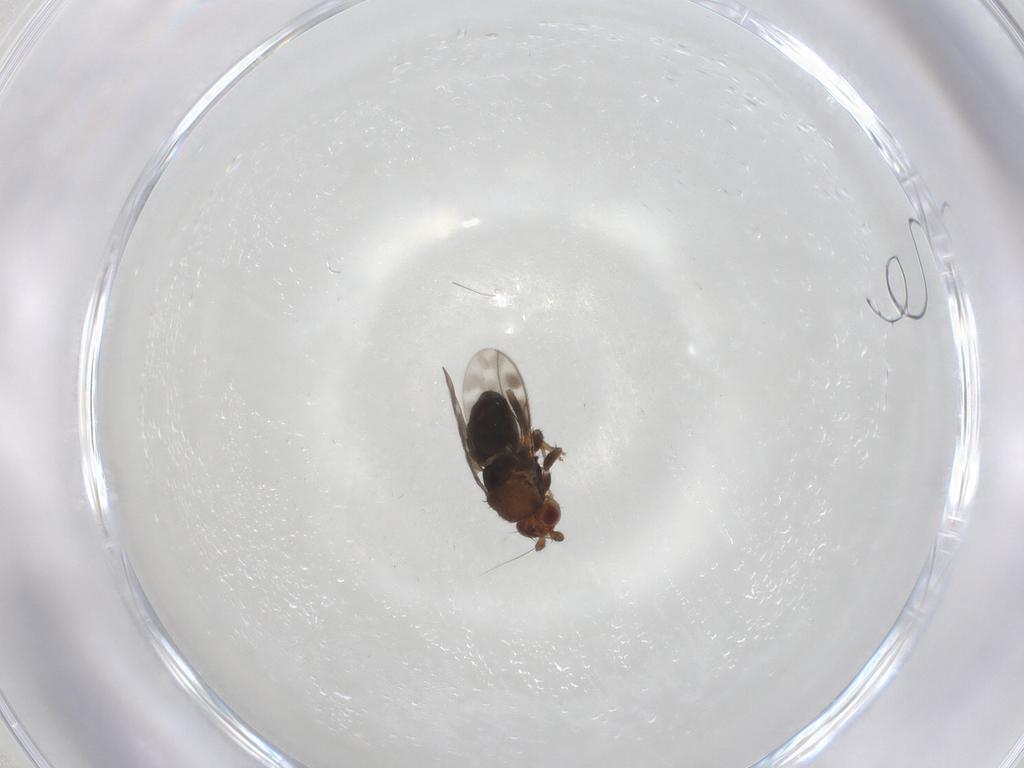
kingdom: Animalia
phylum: Arthropoda
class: Insecta
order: Diptera
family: Sphaeroceridae
